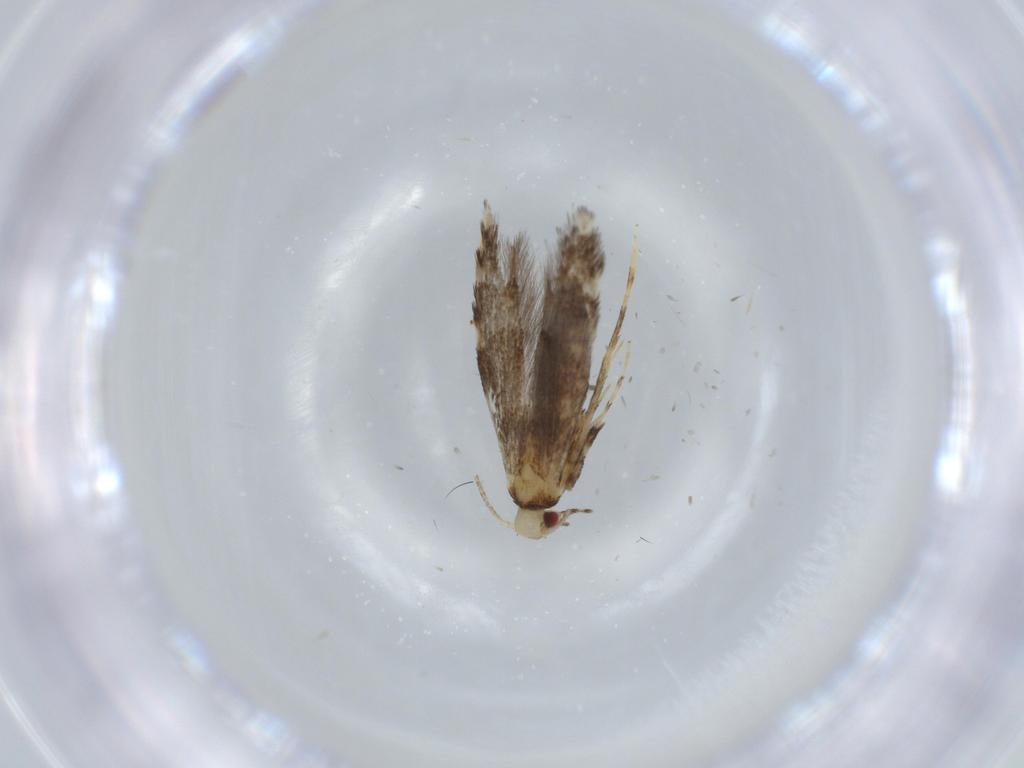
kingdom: Animalia
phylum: Arthropoda
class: Insecta
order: Lepidoptera
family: Gracillariidae
